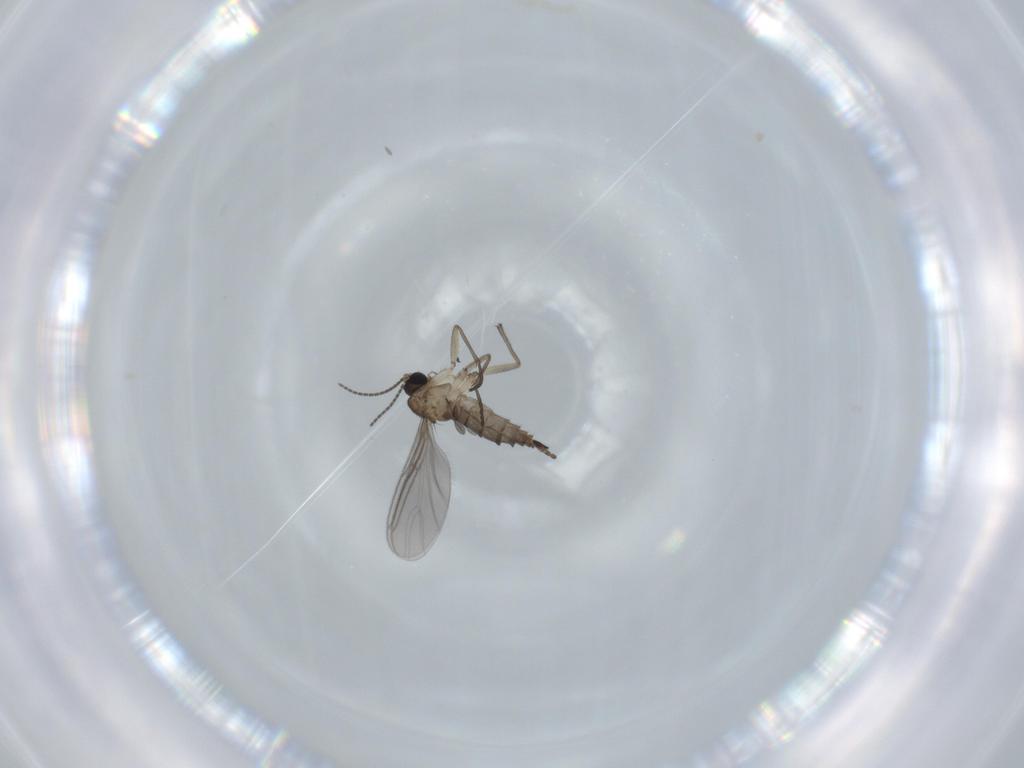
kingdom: Animalia
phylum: Arthropoda
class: Insecta
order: Diptera
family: Sciaridae
